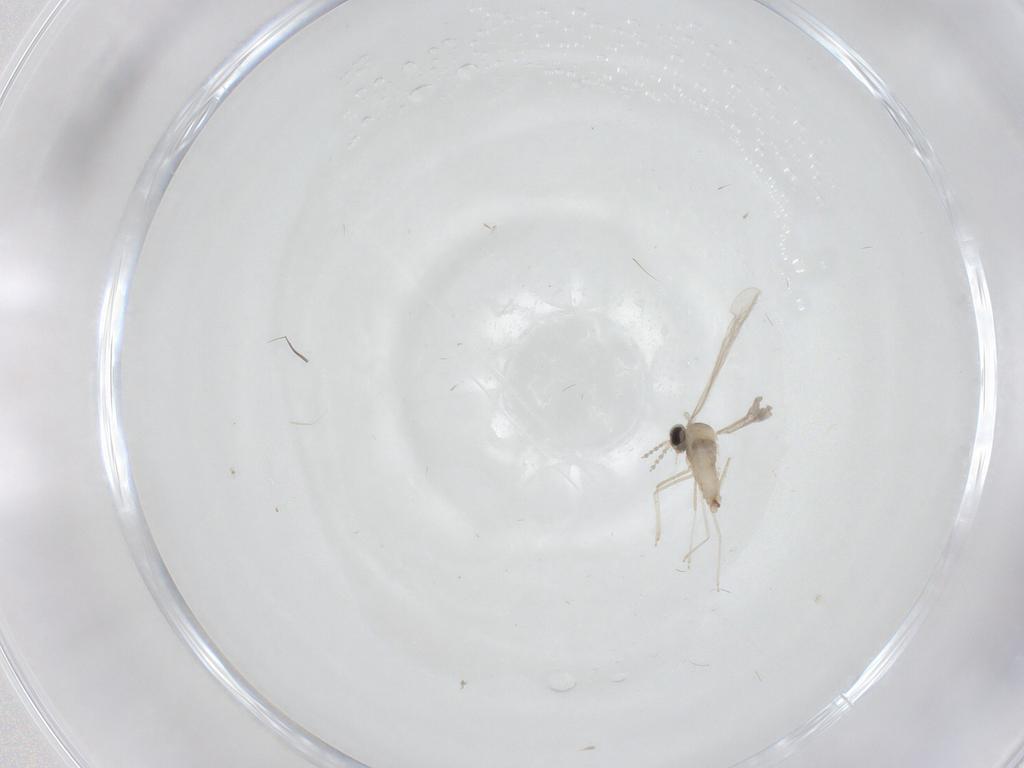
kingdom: Animalia
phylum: Arthropoda
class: Insecta
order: Diptera
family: Cecidomyiidae
